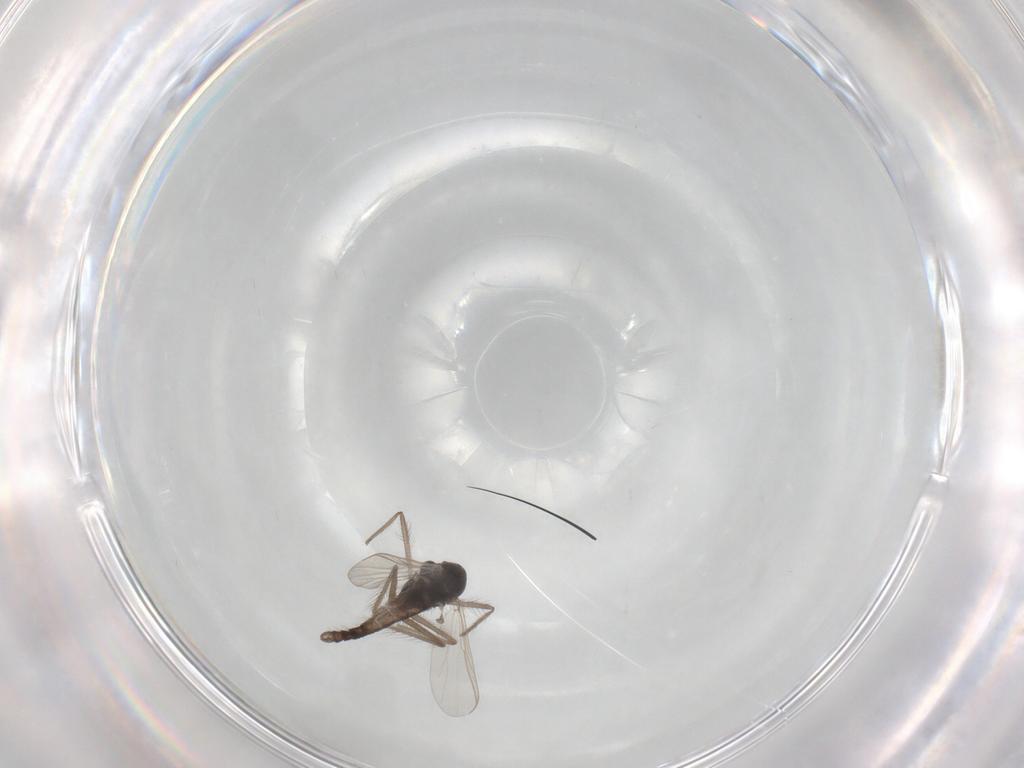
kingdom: Animalia
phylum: Arthropoda
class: Insecta
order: Diptera
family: Chironomidae
